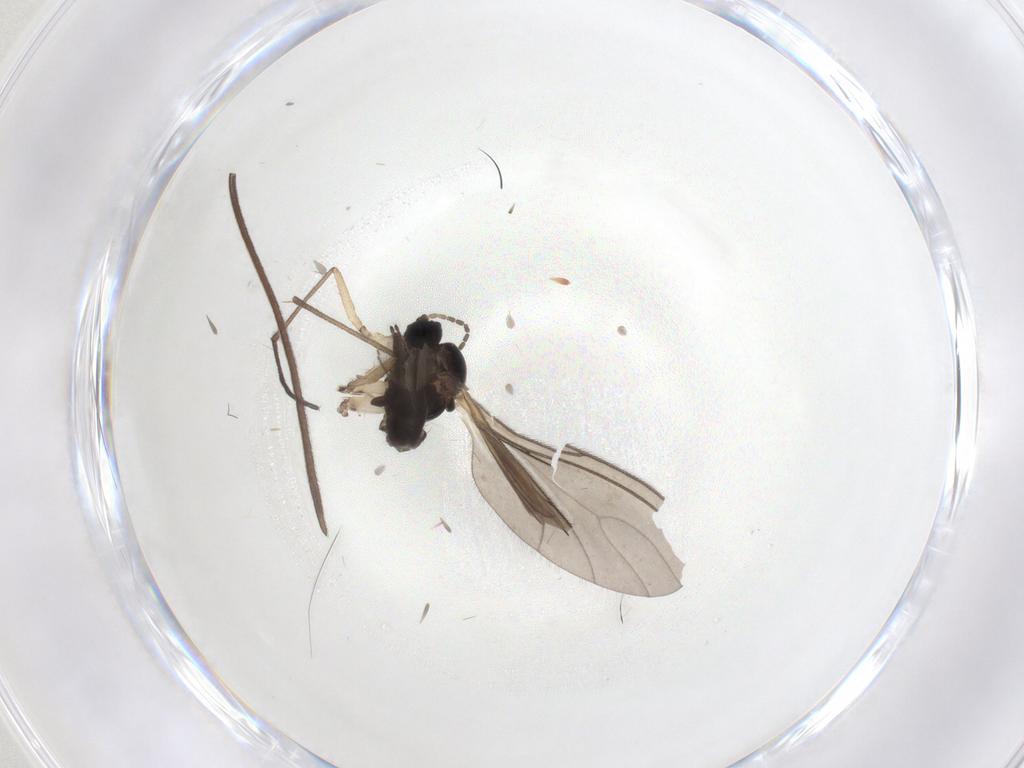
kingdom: Animalia
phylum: Arthropoda
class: Insecta
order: Diptera
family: Sciaridae
